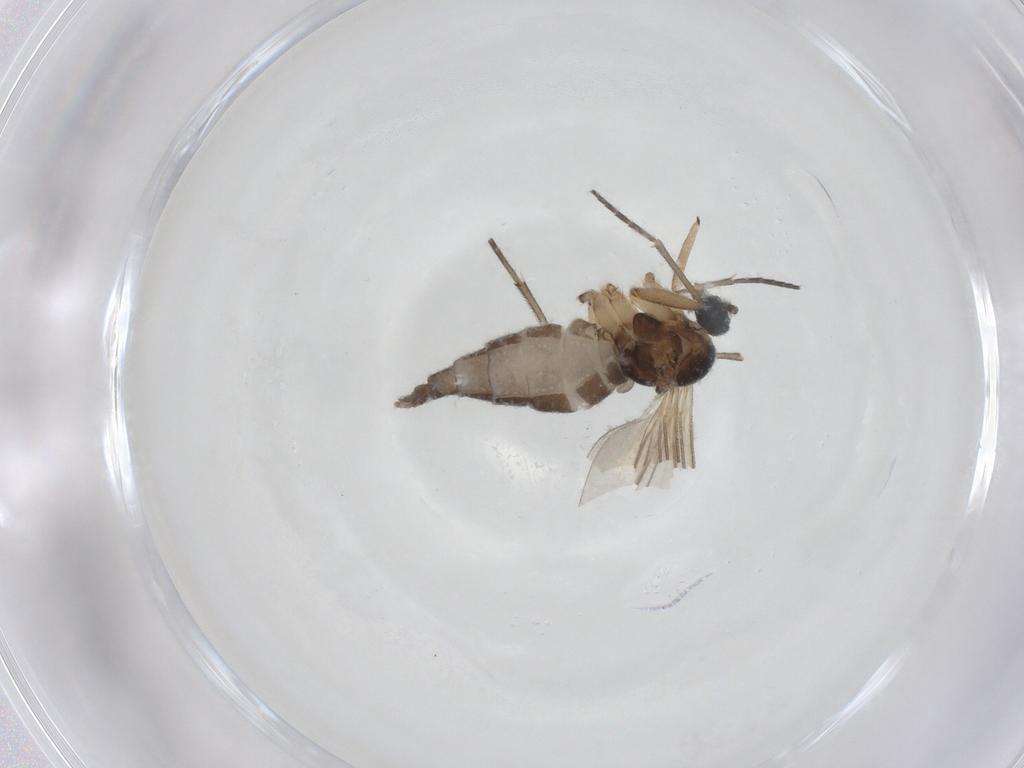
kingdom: Animalia
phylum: Arthropoda
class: Insecta
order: Diptera
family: Sciaridae
